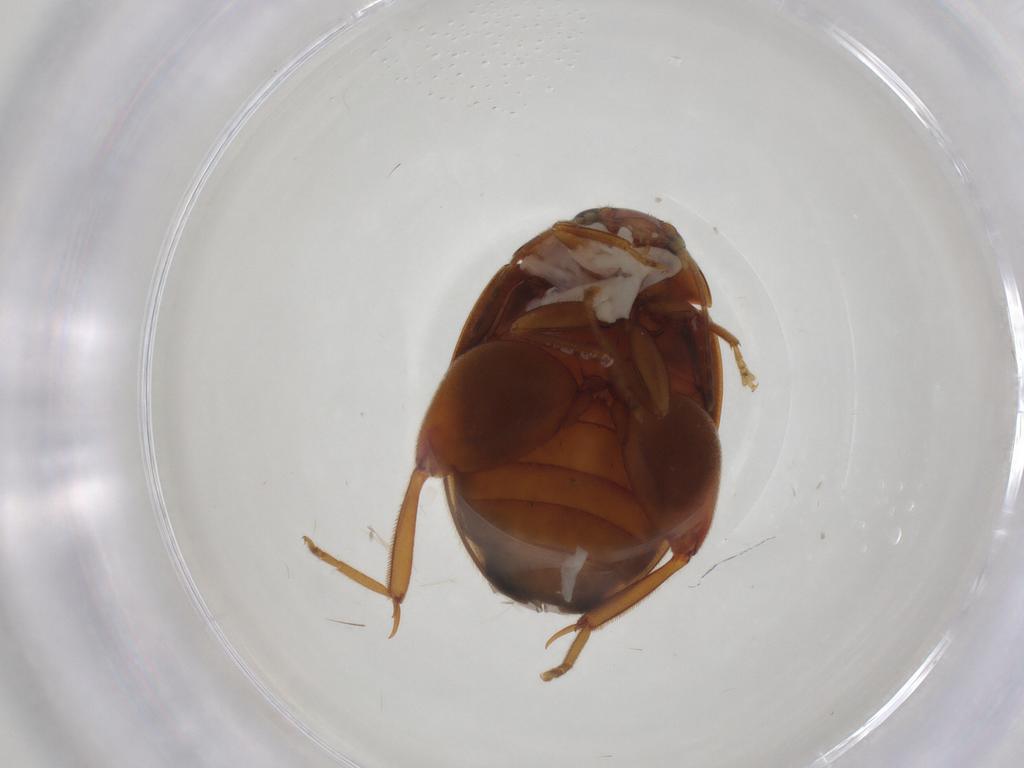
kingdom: Animalia
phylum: Arthropoda
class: Insecta
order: Coleoptera
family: Chrysomelidae
